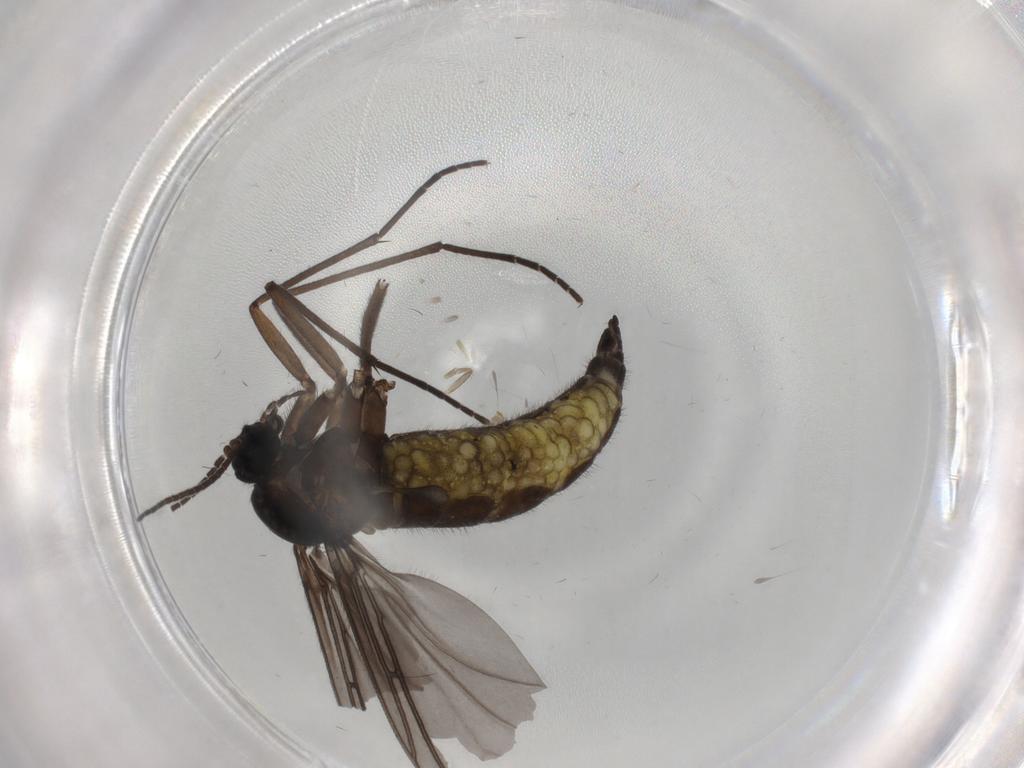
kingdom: Animalia
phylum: Arthropoda
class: Insecta
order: Diptera
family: Sciaridae
